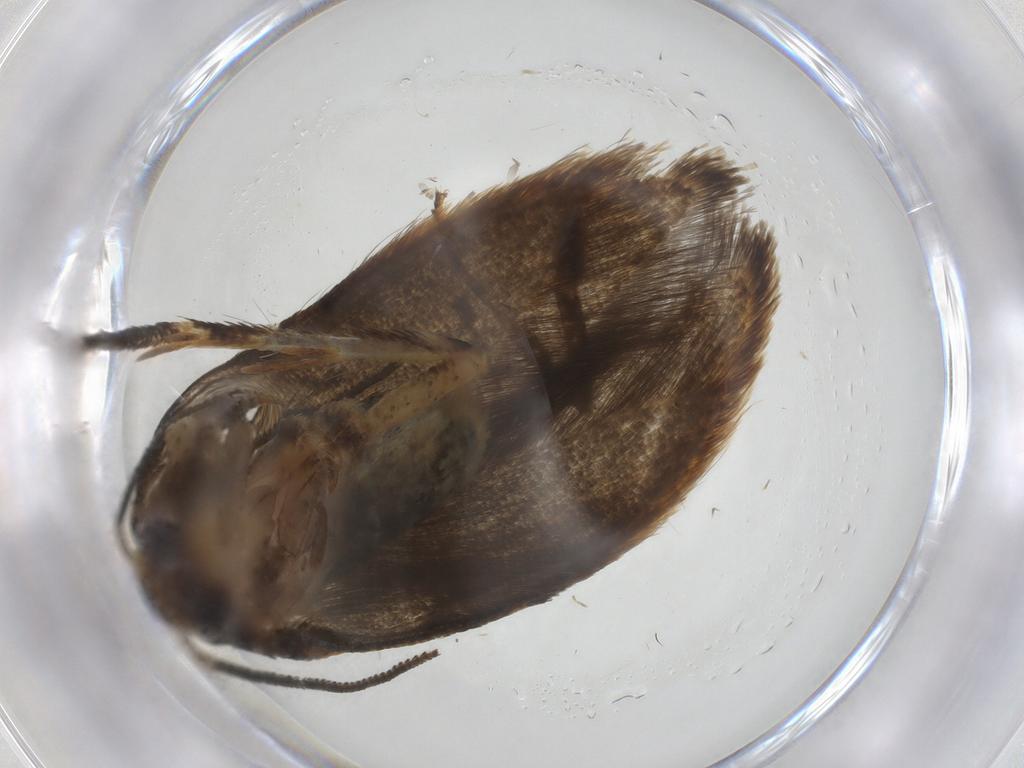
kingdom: Animalia
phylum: Arthropoda
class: Insecta
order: Lepidoptera
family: Blastobasidae
